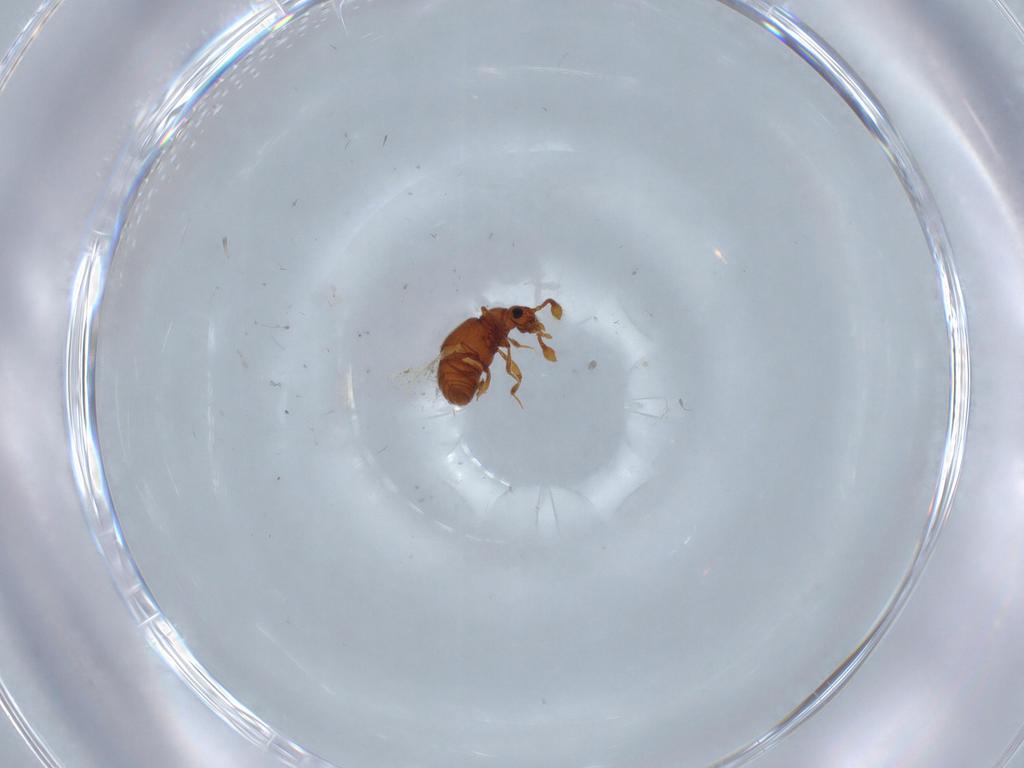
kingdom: Animalia
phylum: Arthropoda
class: Insecta
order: Coleoptera
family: Staphylinidae
